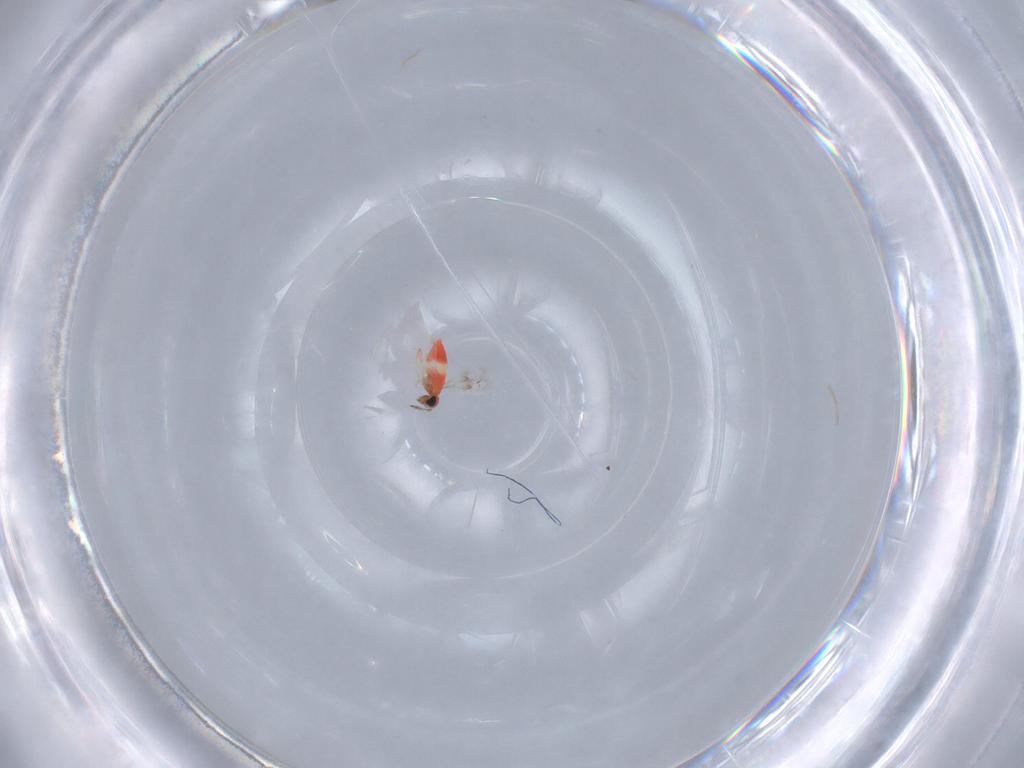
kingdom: Animalia
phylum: Arthropoda
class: Insecta
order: Hymenoptera
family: Trichogrammatidae
